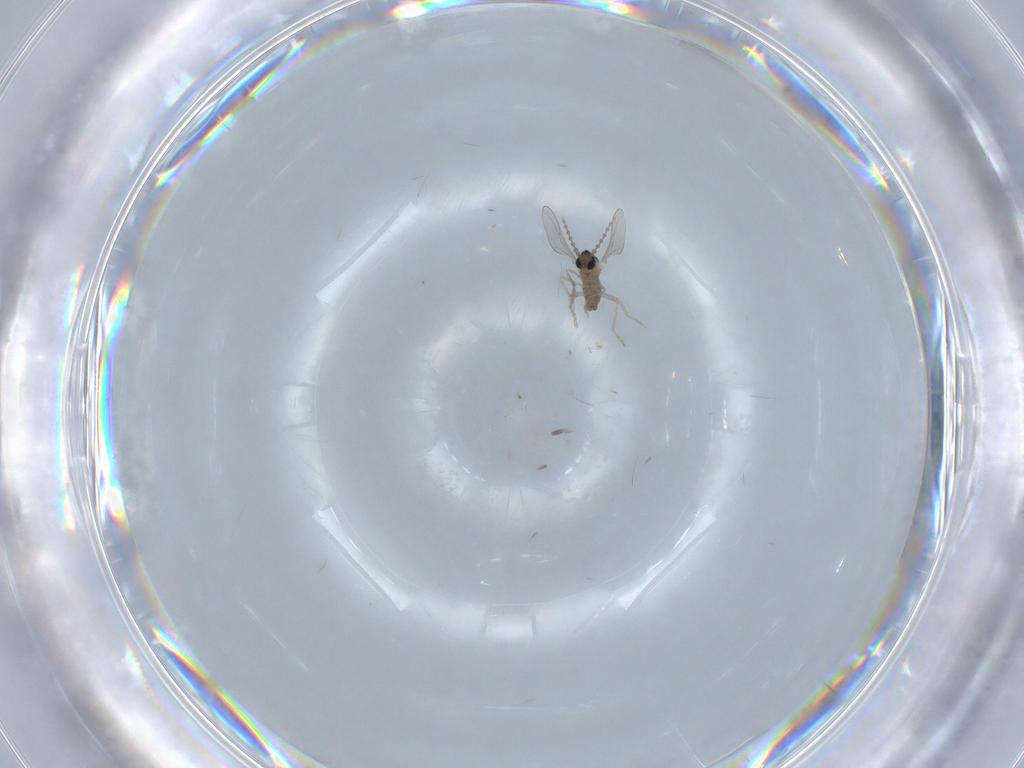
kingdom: Animalia
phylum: Arthropoda
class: Insecta
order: Diptera
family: Cecidomyiidae
